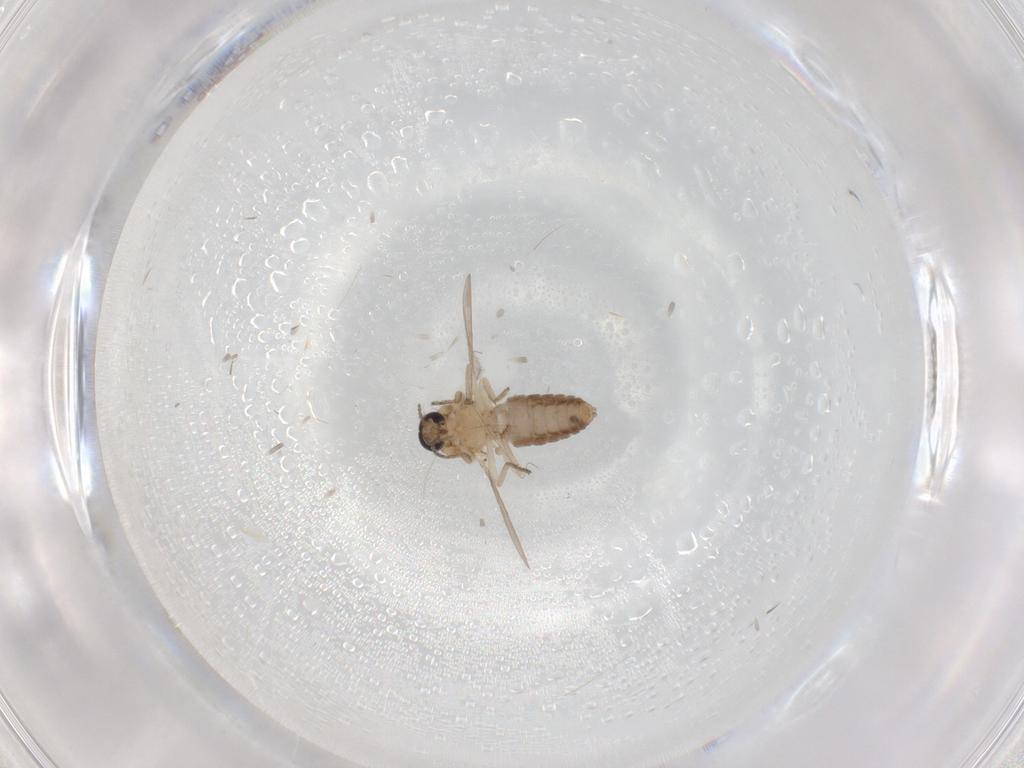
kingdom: Animalia
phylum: Arthropoda
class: Insecta
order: Diptera
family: Ceratopogonidae
